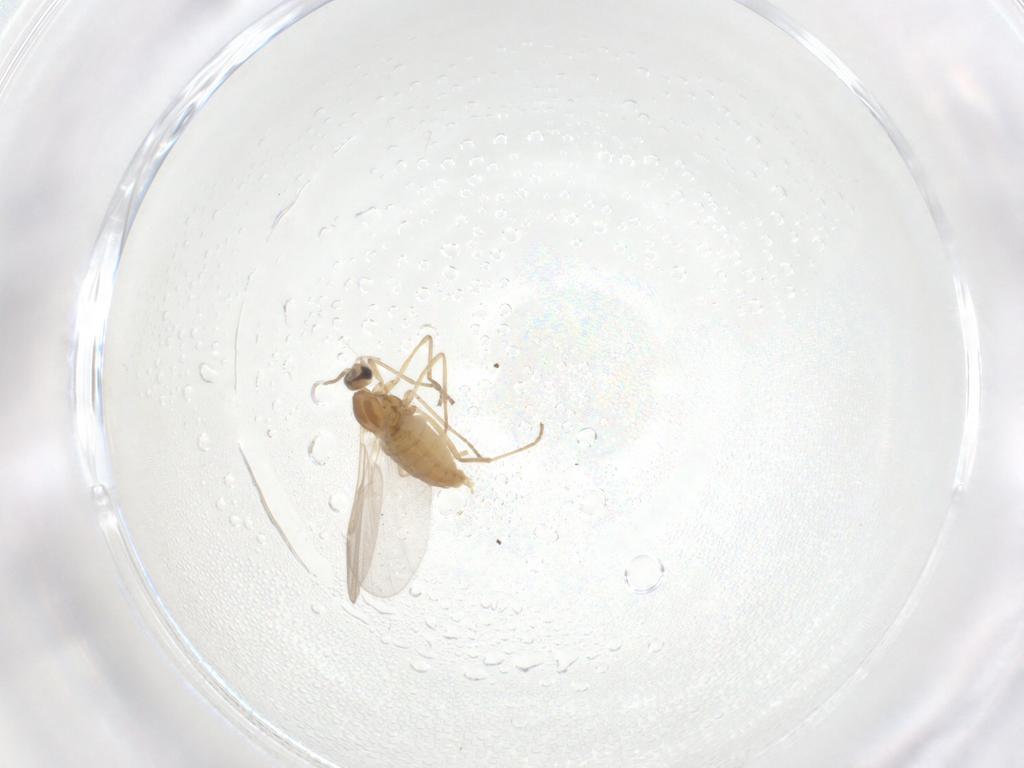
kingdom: Animalia
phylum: Arthropoda
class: Insecta
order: Diptera
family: Cecidomyiidae
